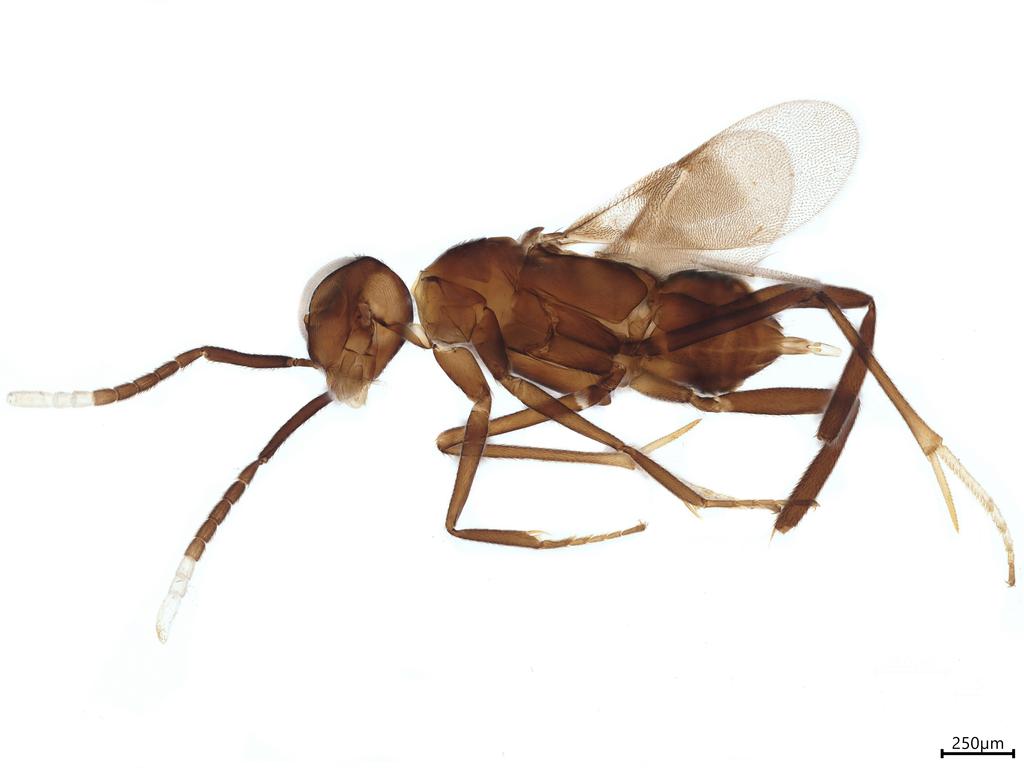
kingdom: Animalia
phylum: Arthropoda
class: Insecta
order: Hymenoptera
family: Encyrtidae
